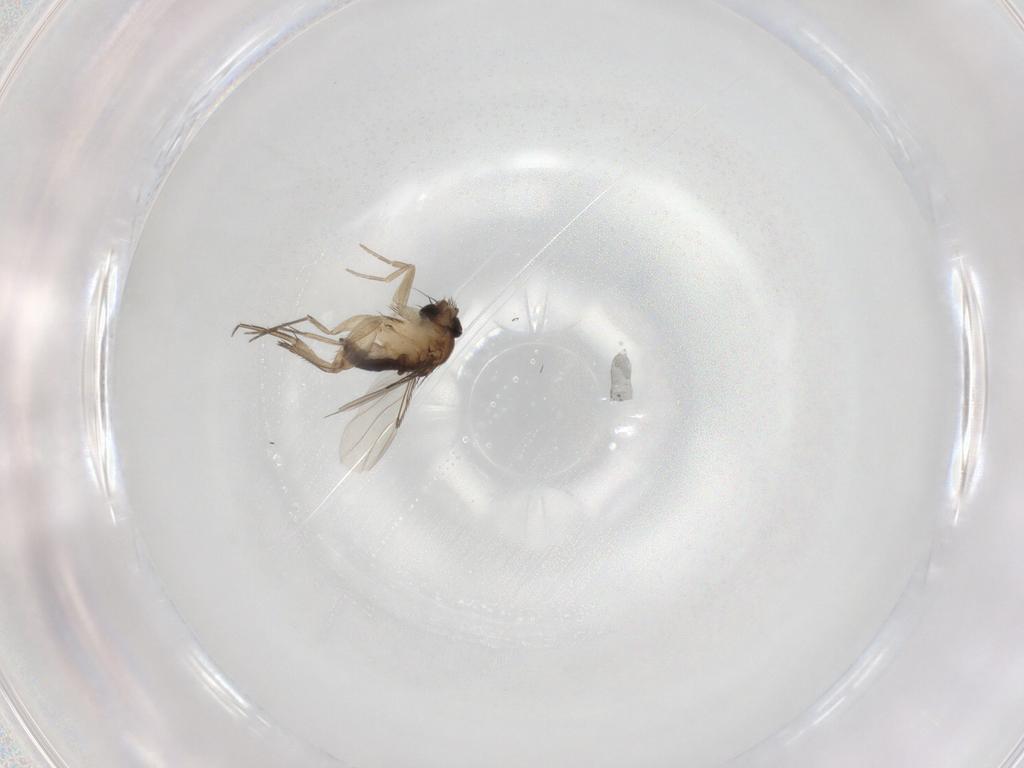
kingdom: Animalia
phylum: Arthropoda
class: Insecta
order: Diptera
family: Phoridae
